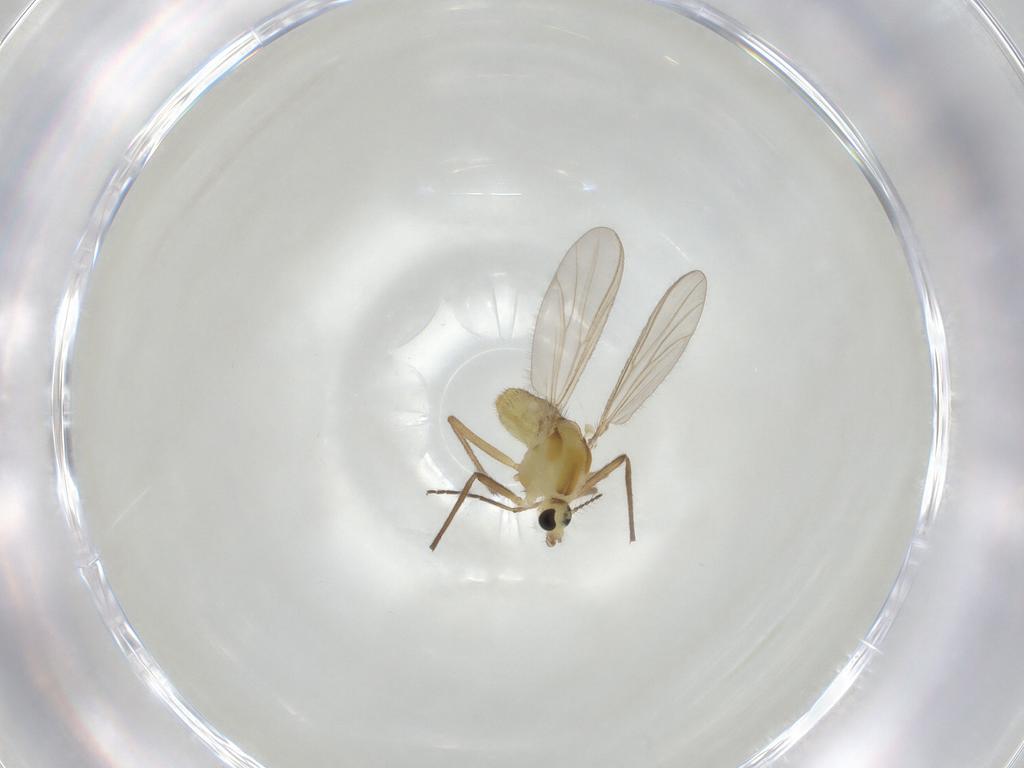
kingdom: Animalia
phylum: Arthropoda
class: Insecta
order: Diptera
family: Chironomidae
